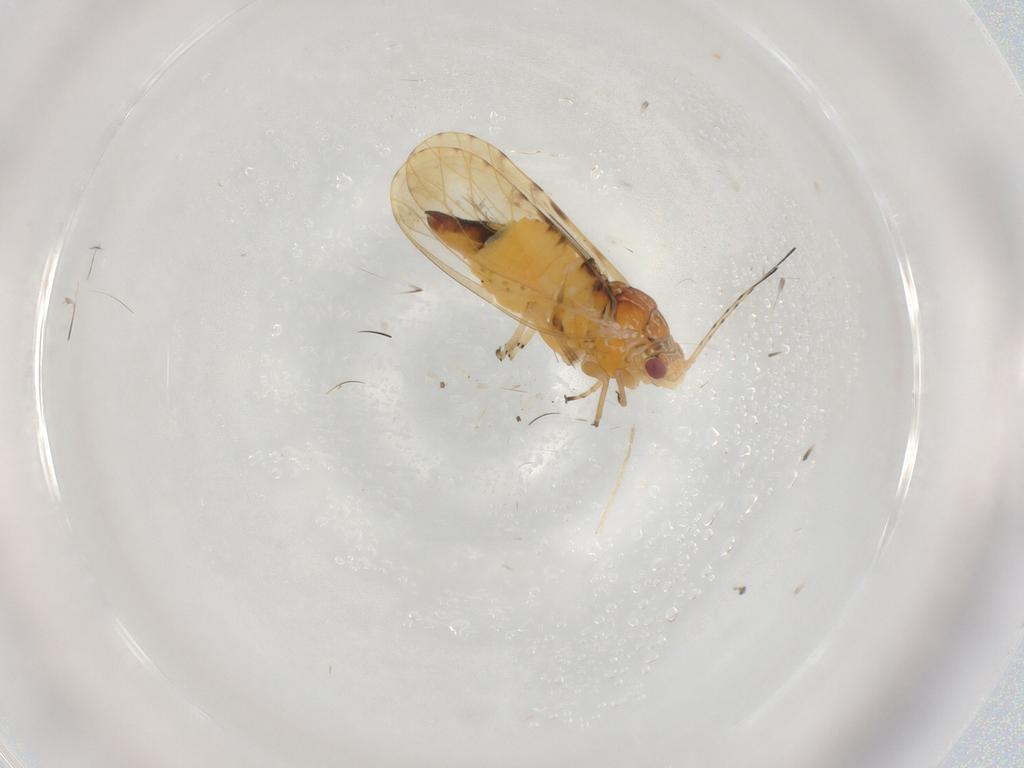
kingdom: Animalia
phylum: Arthropoda
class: Insecta
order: Hemiptera
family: Psyllidae
